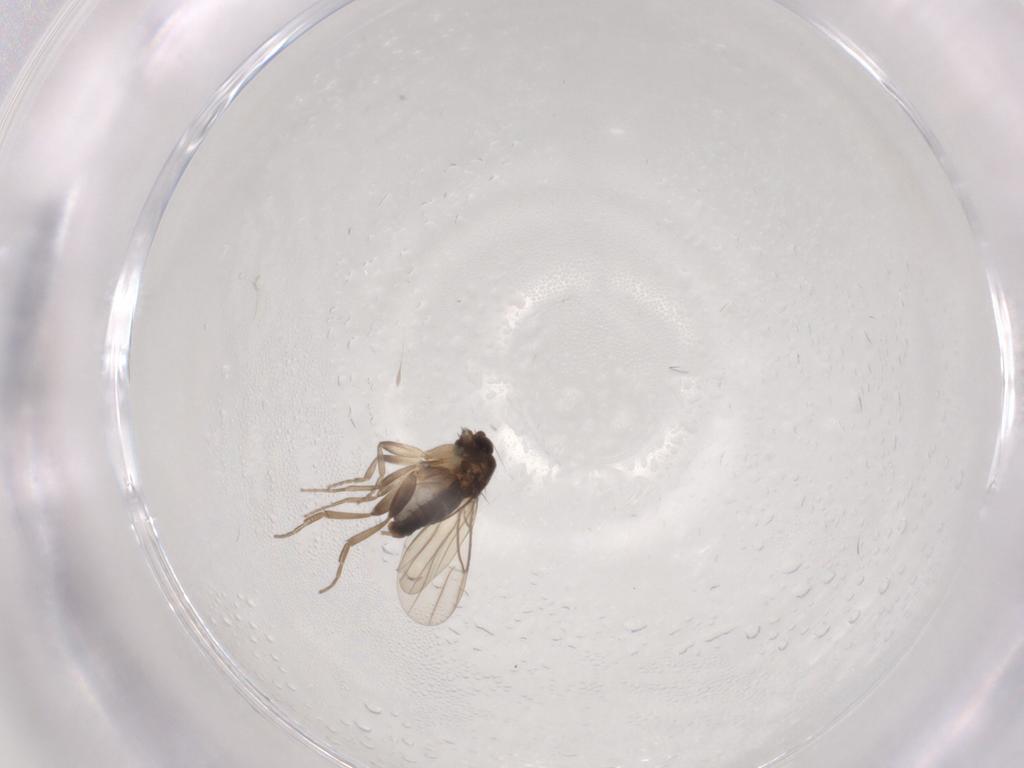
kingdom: Animalia
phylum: Arthropoda
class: Insecta
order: Diptera
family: Phoridae
